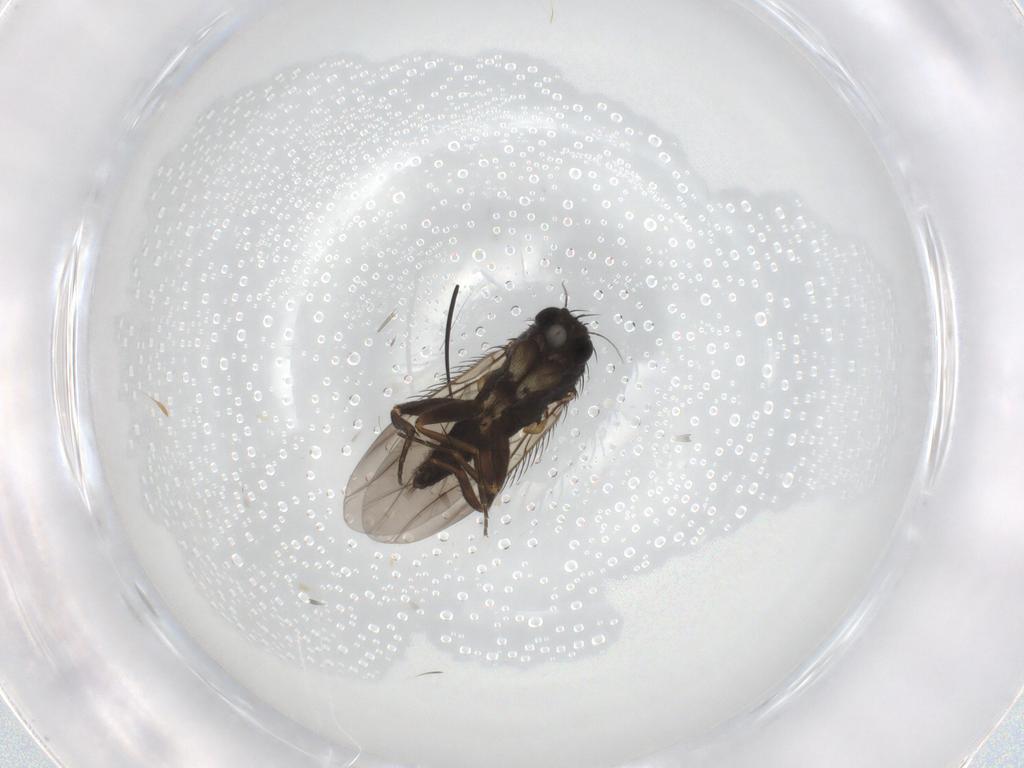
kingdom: Animalia
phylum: Arthropoda
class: Insecta
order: Diptera
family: Phoridae
